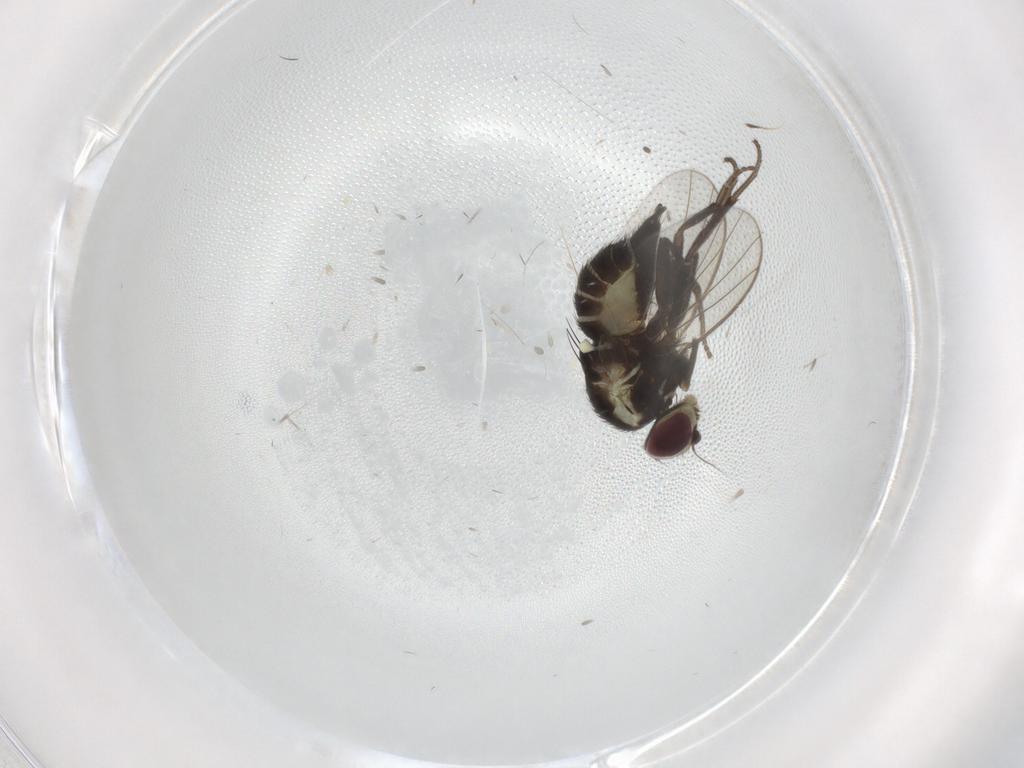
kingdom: Animalia
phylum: Arthropoda
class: Insecta
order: Diptera
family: Agromyzidae
